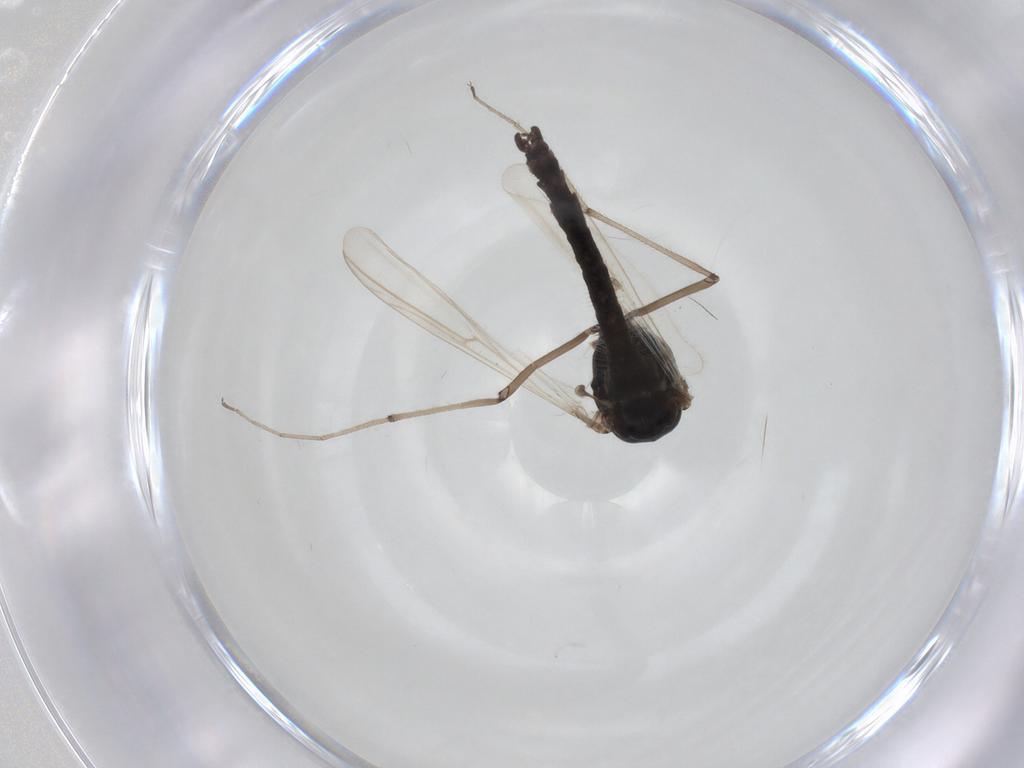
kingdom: Animalia
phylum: Arthropoda
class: Insecta
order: Diptera
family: Chironomidae
